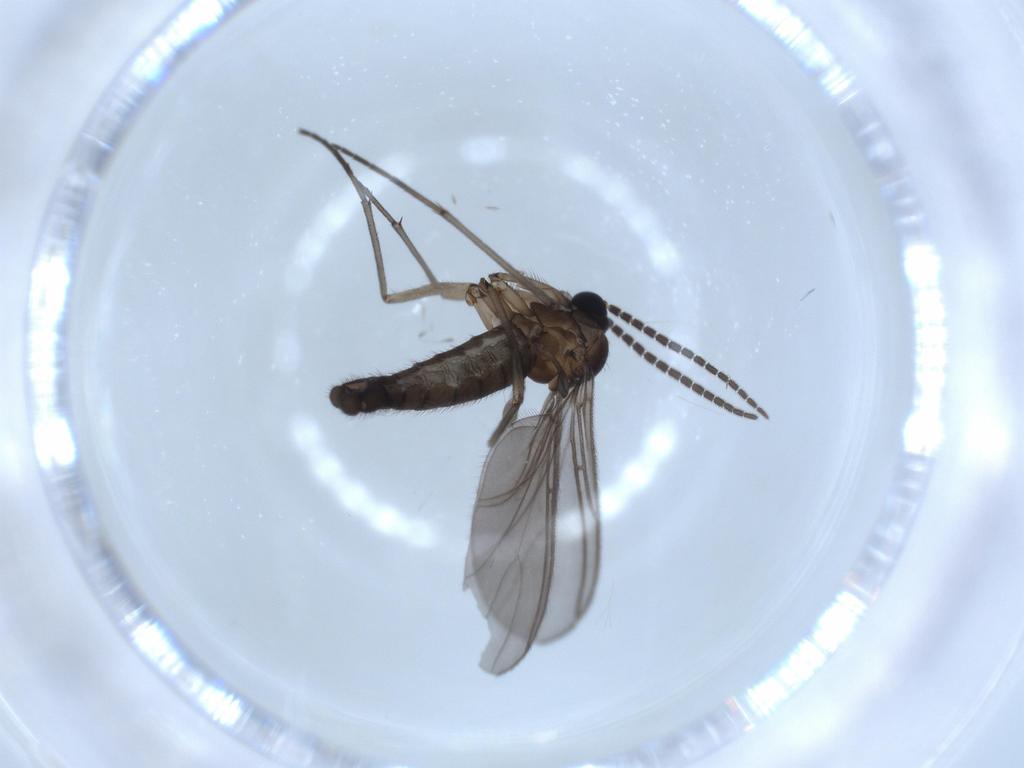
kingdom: Animalia
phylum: Arthropoda
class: Insecta
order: Diptera
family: Sciaridae
